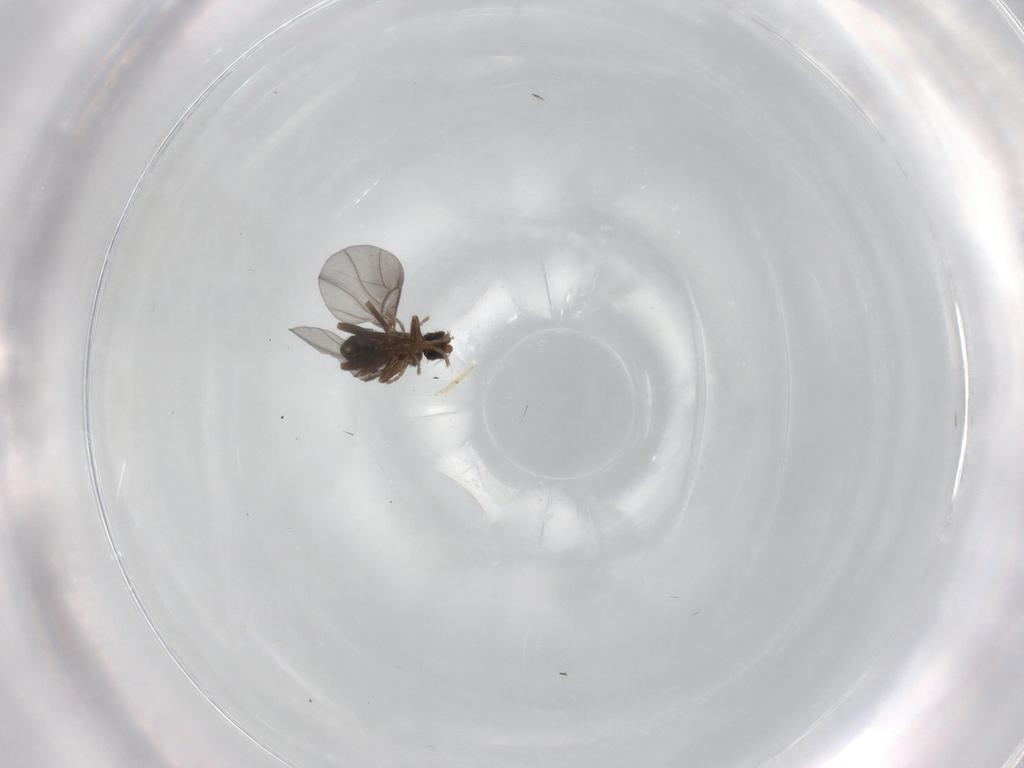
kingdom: Animalia
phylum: Arthropoda
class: Insecta
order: Diptera
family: Phoridae
